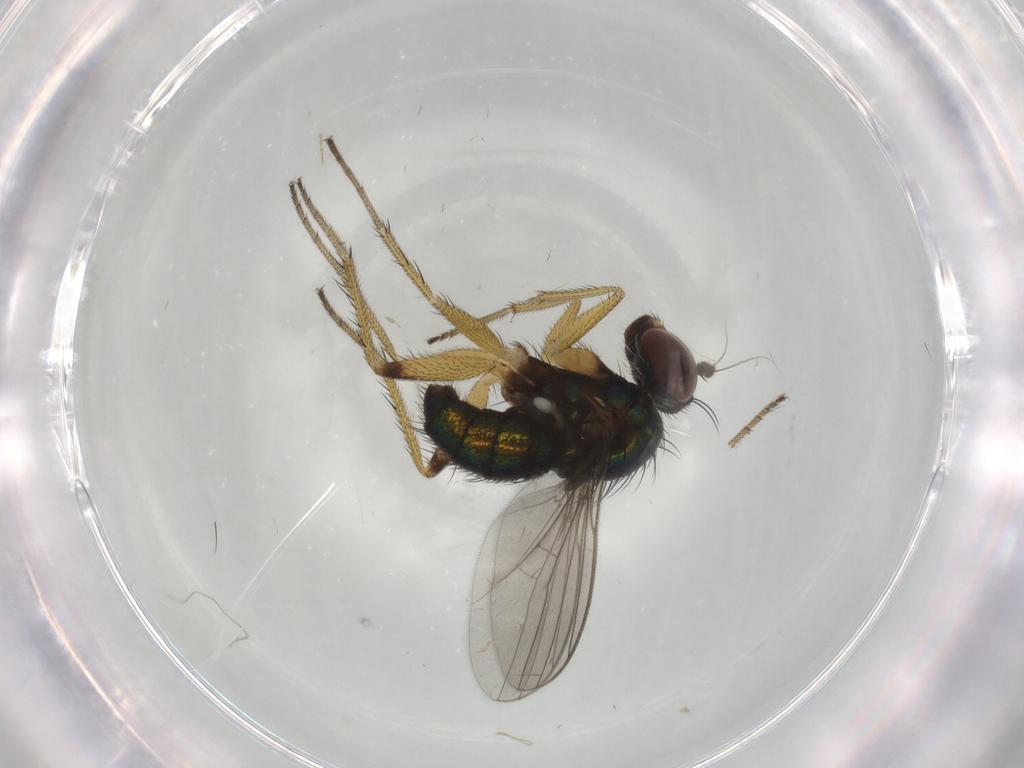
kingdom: Animalia
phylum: Arthropoda
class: Insecta
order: Diptera
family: Dolichopodidae
